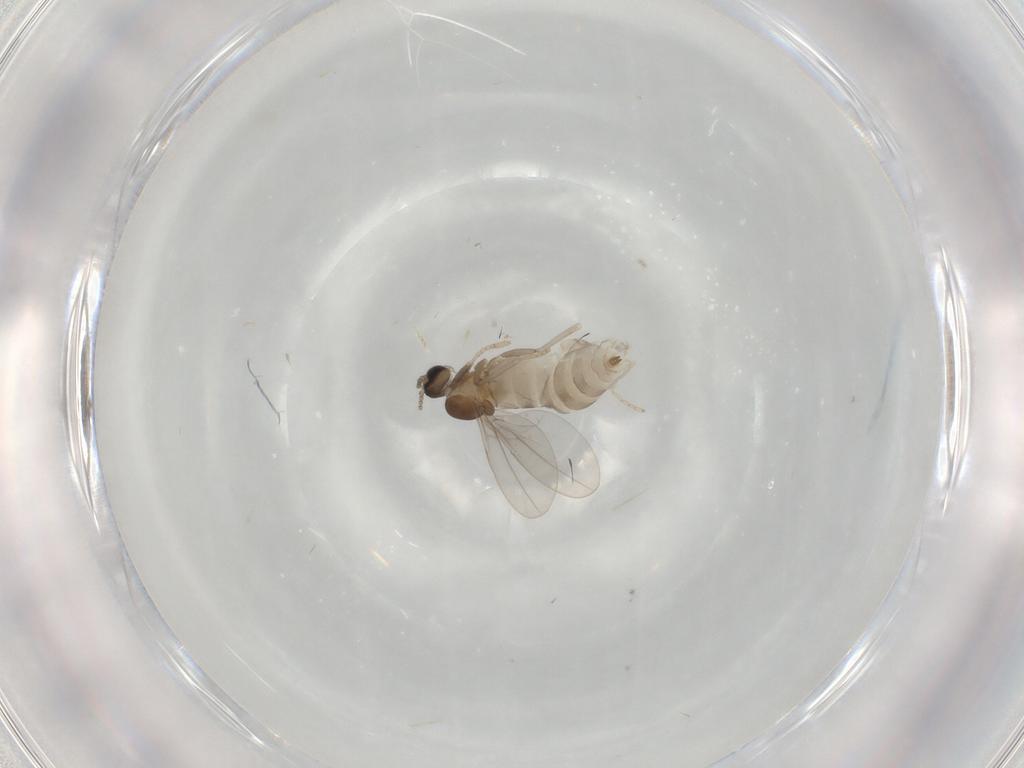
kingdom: Animalia
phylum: Arthropoda
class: Insecta
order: Diptera
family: Cecidomyiidae
